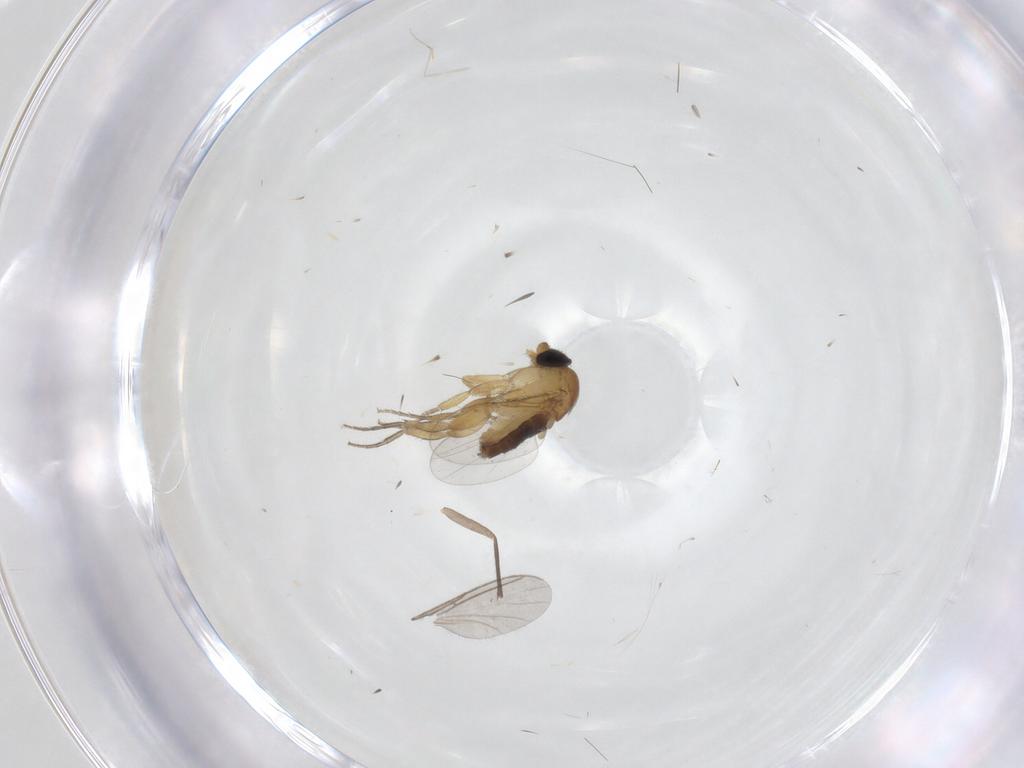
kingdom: Animalia
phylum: Arthropoda
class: Insecta
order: Diptera
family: Sciaridae
